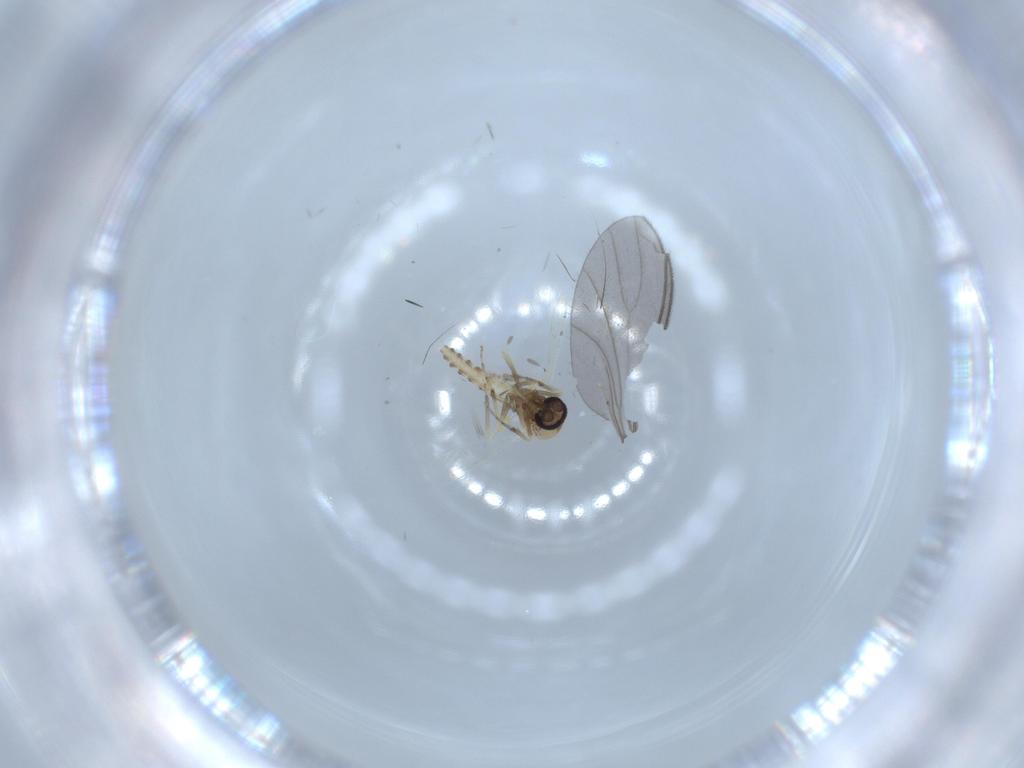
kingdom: Animalia
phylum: Arthropoda
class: Insecta
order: Diptera
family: Sciaridae
